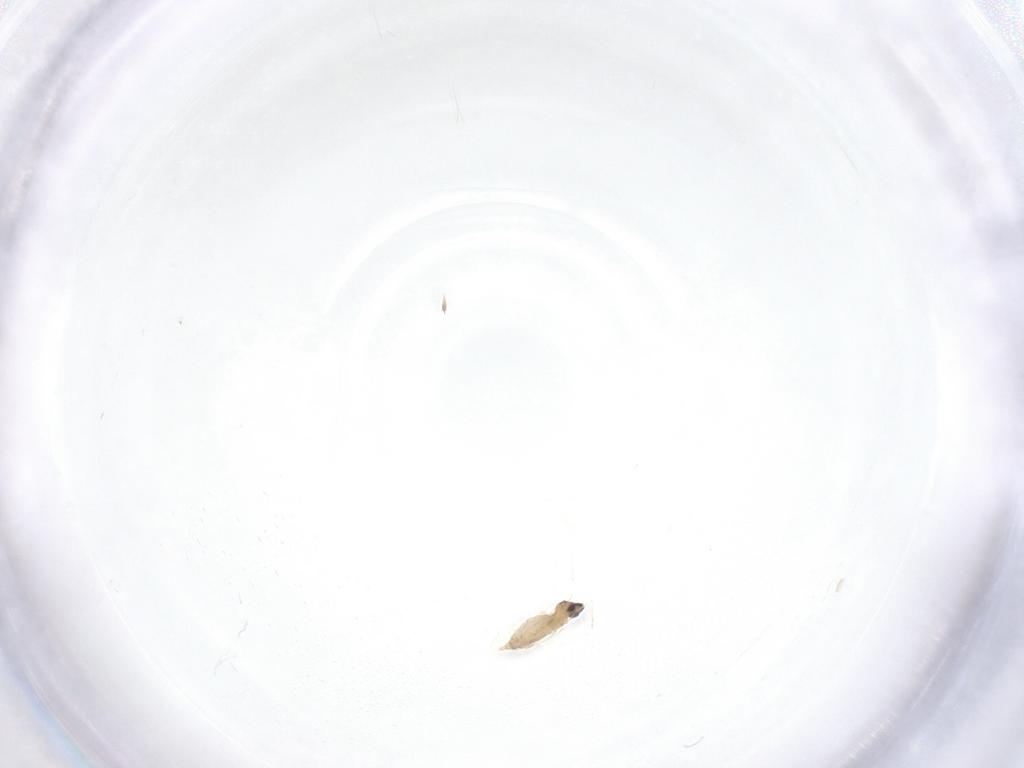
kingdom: Animalia
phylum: Arthropoda
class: Insecta
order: Diptera
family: Cecidomyiidae
